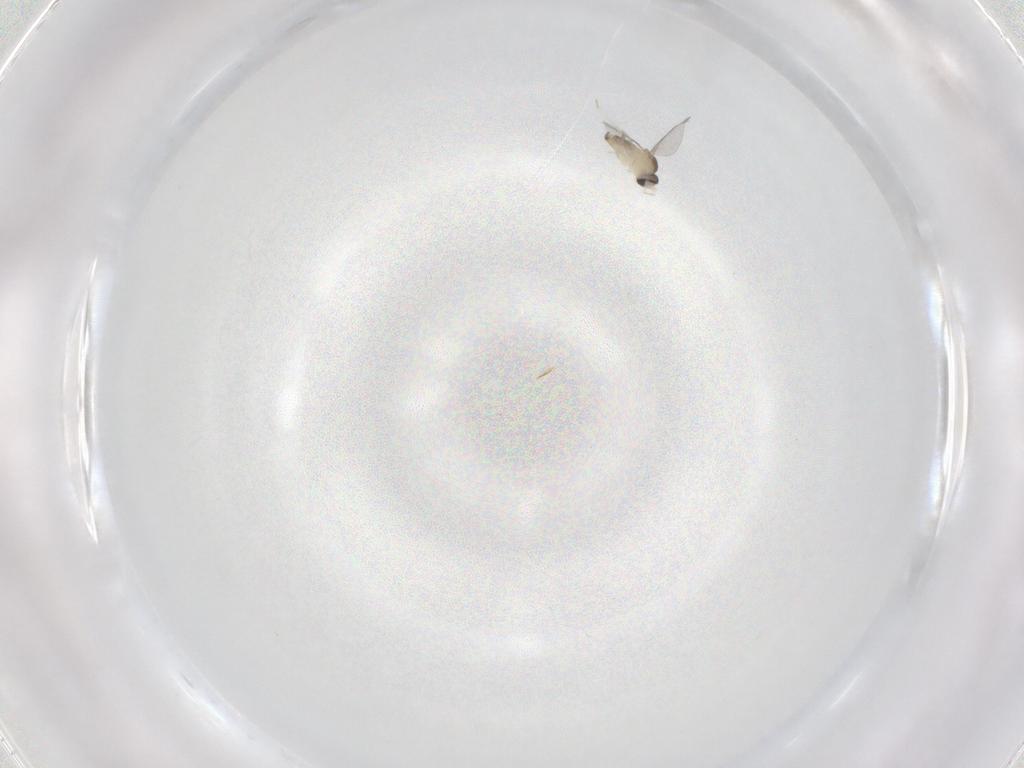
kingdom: Animalia
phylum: Arthropoda
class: Insecta
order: Diptera
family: Cecidomyiidae
